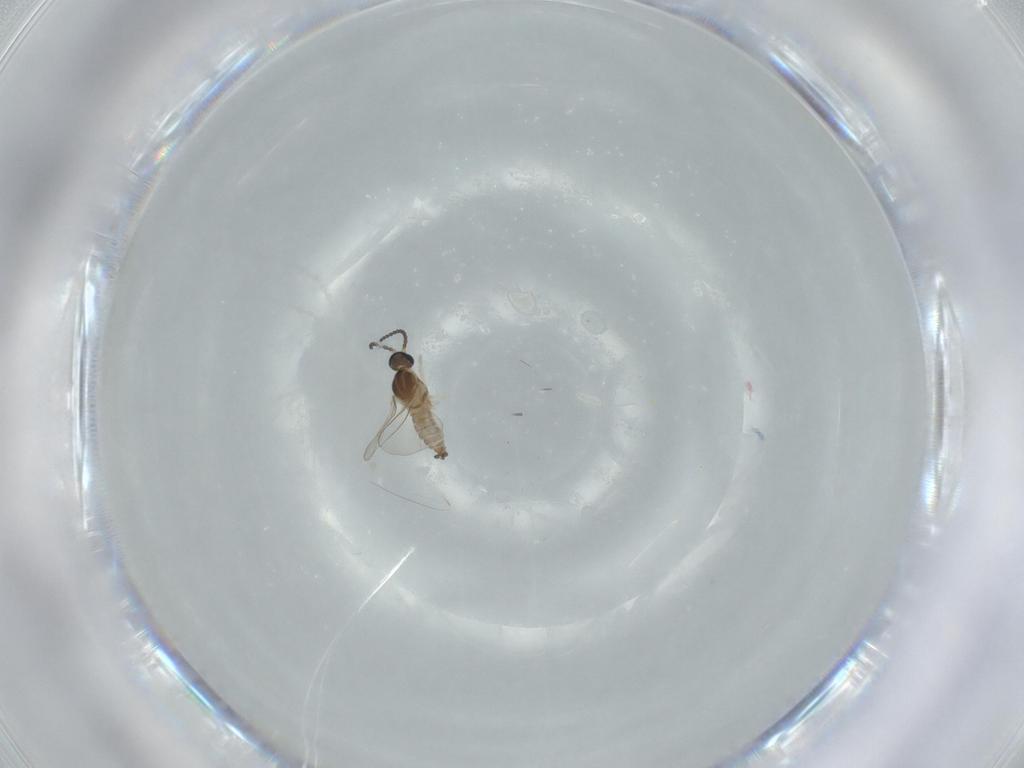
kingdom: Animalia
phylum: Arthropoda
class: Insecta
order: Diptera
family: Cecidomyiidae
